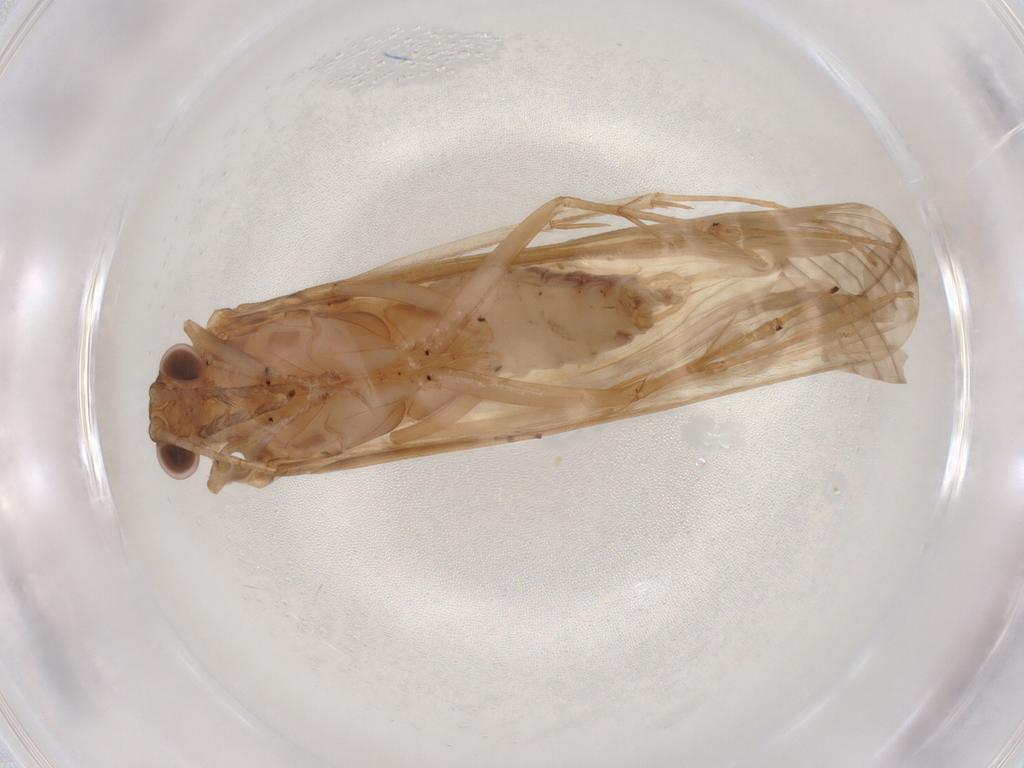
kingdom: Animalia
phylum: Arthropoda
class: Insecta
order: Trichoptera
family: Hydropsychidae
